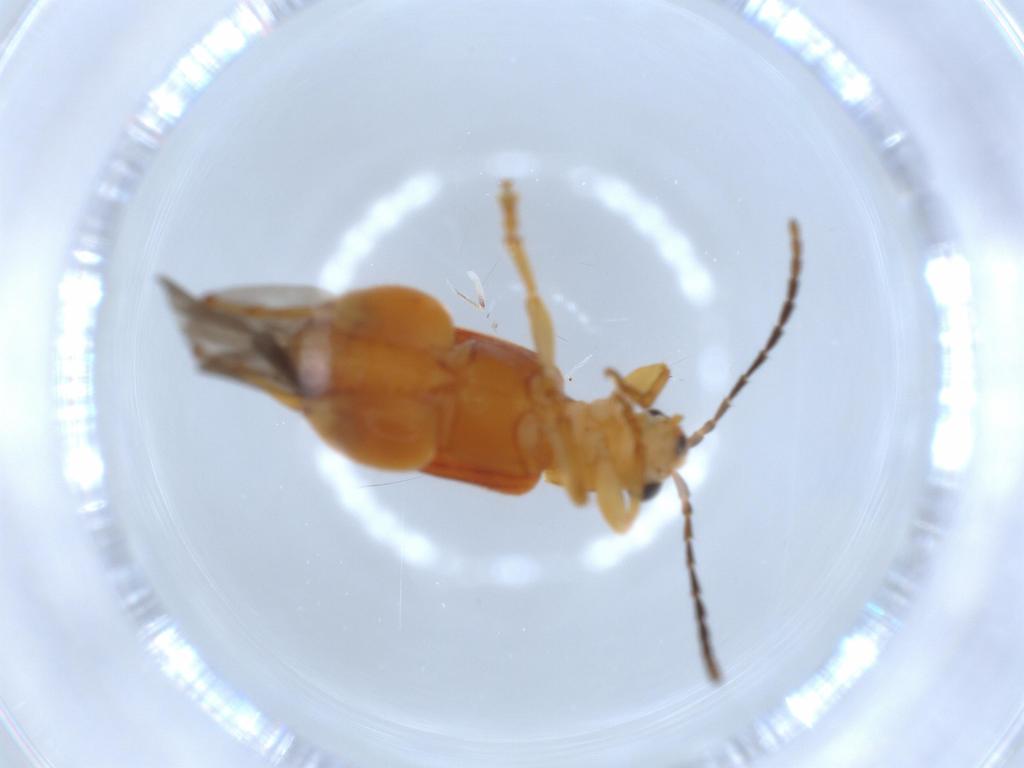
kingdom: Animalia
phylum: Arthropoda
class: Insecta
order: Coleoptera
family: Chrysomelidae
